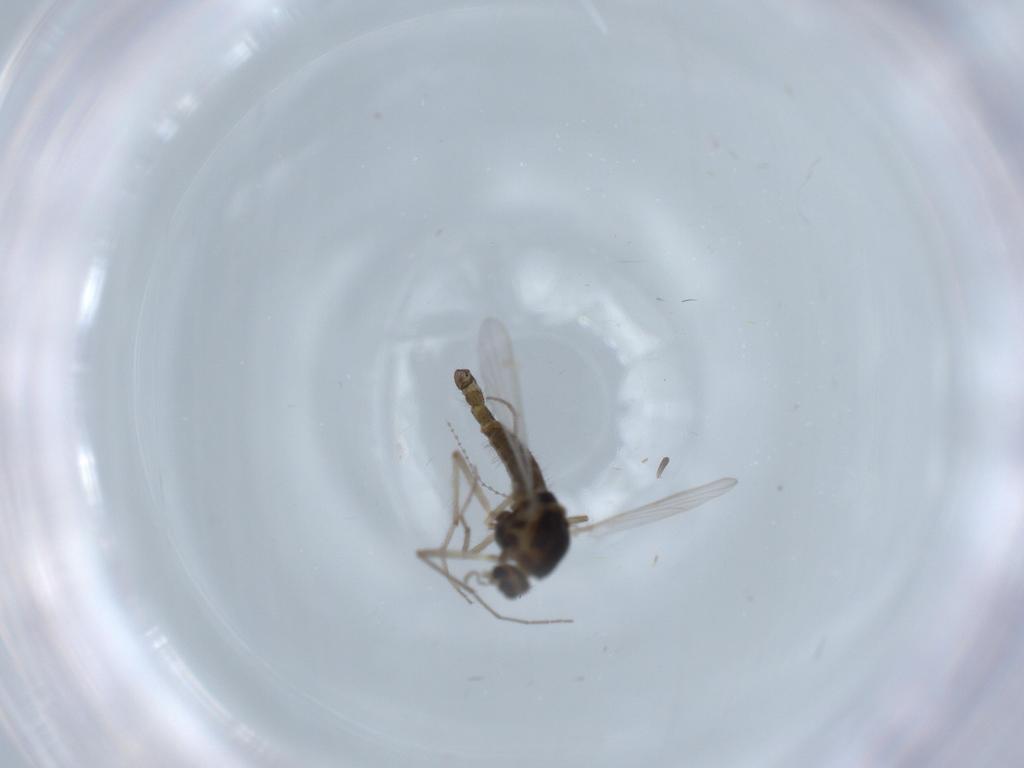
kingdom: Animalia
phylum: Arthropoda
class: Insecta
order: Diptera
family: Chironomidae
